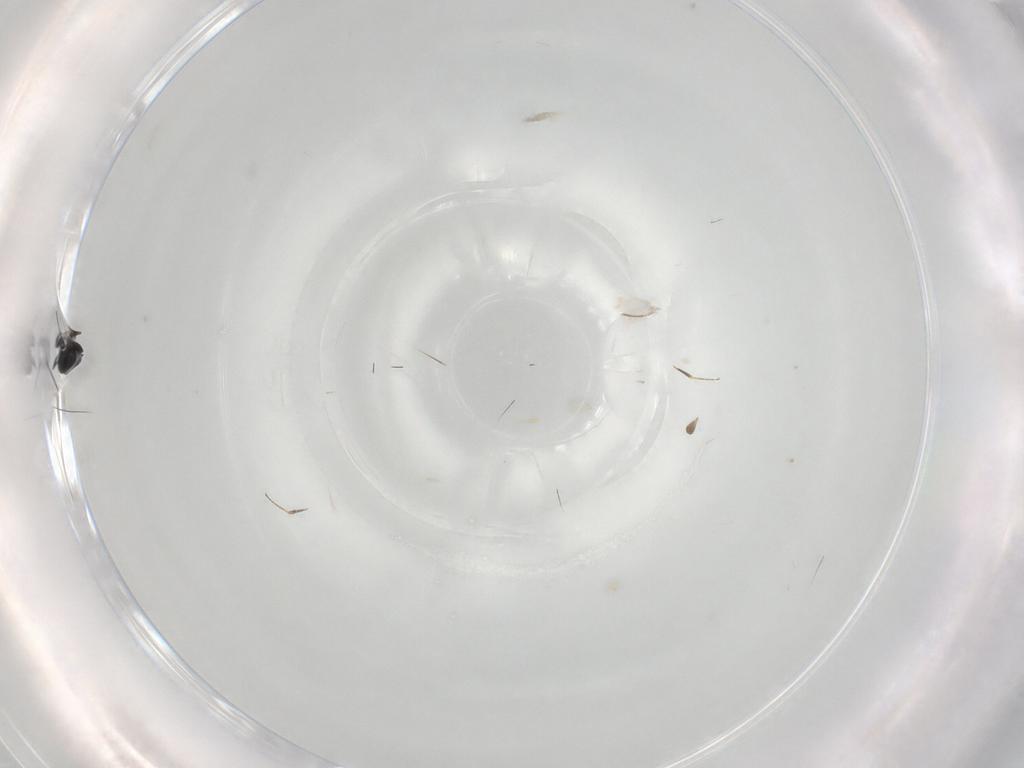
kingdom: Animalia
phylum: Arthropoda
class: Insecta
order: Hymenoptera
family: Scelionidae
